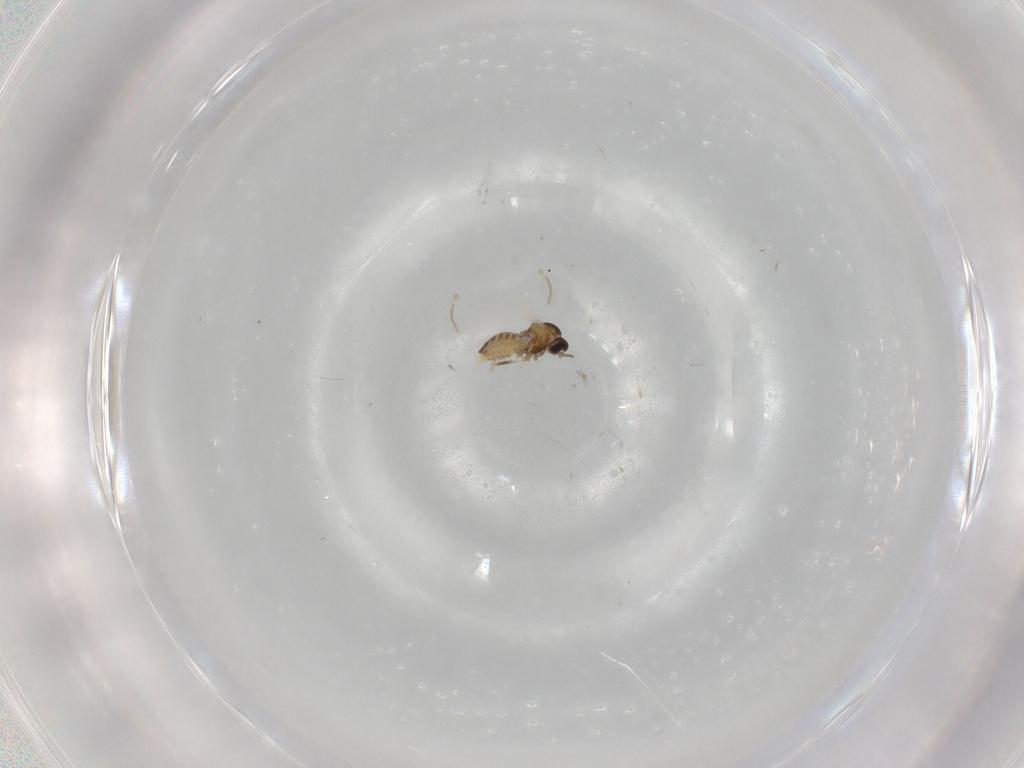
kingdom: Animalia
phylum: Arthropoda
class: Insecta
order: Diptera
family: Cecidomyiidae
